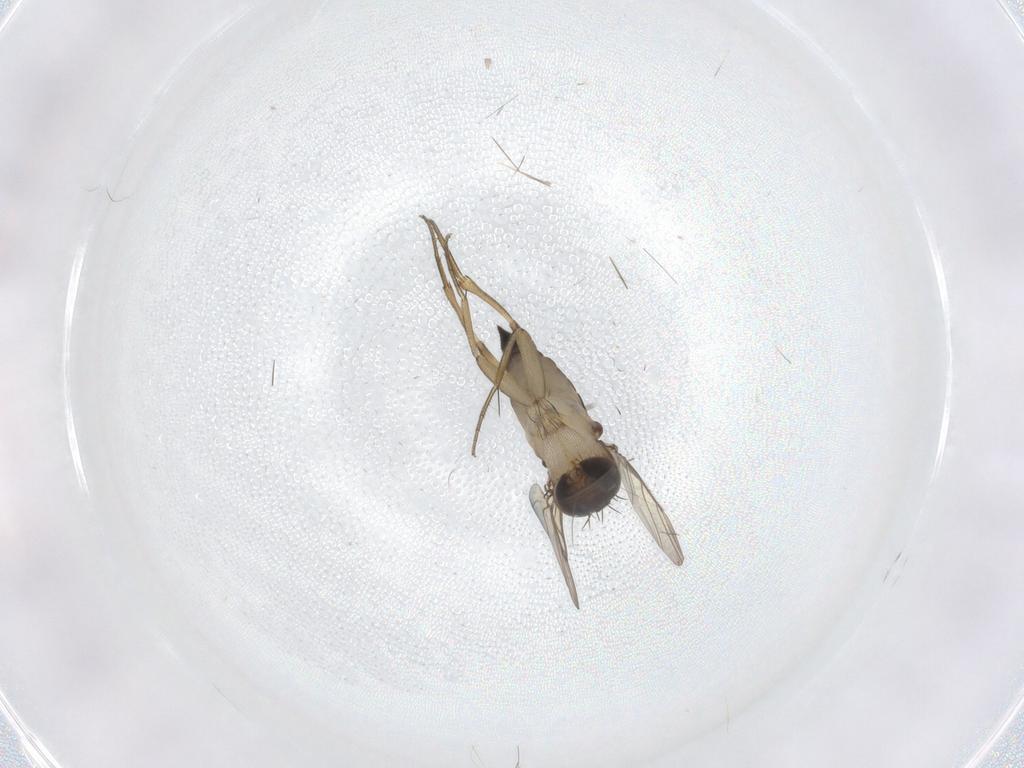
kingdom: Animalia
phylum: Arthropoda
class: Insecta
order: Diptera
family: Phoridae
